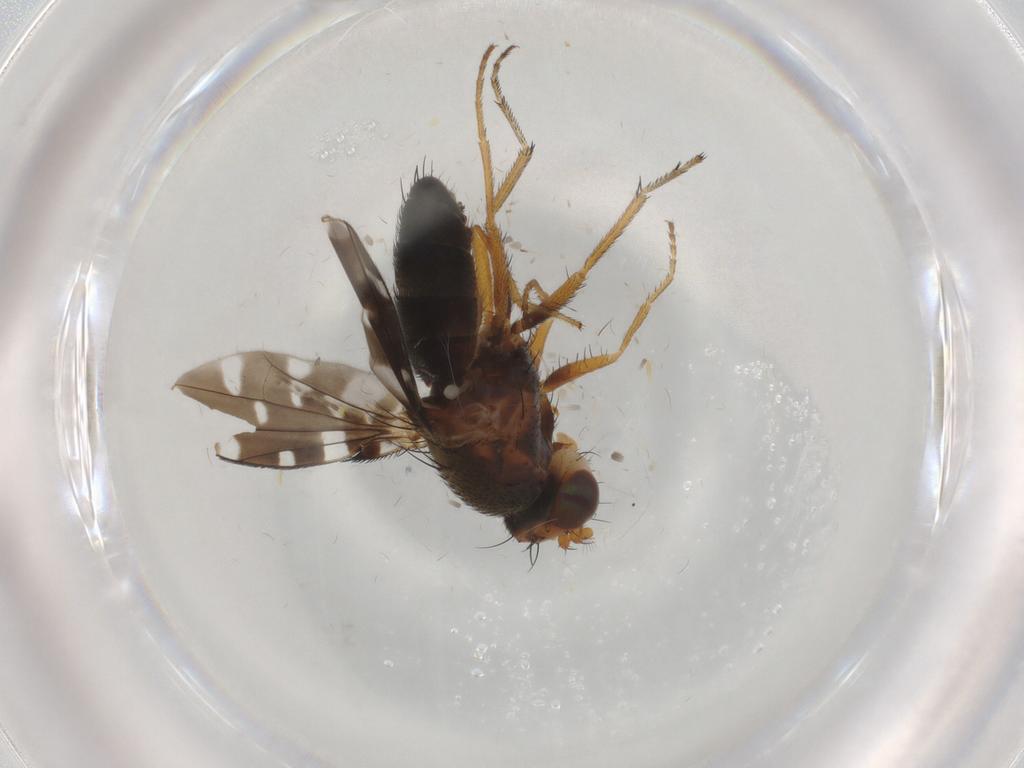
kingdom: Animalia
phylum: Arthropoda
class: Insecta
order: Diptera
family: Ephydridae
